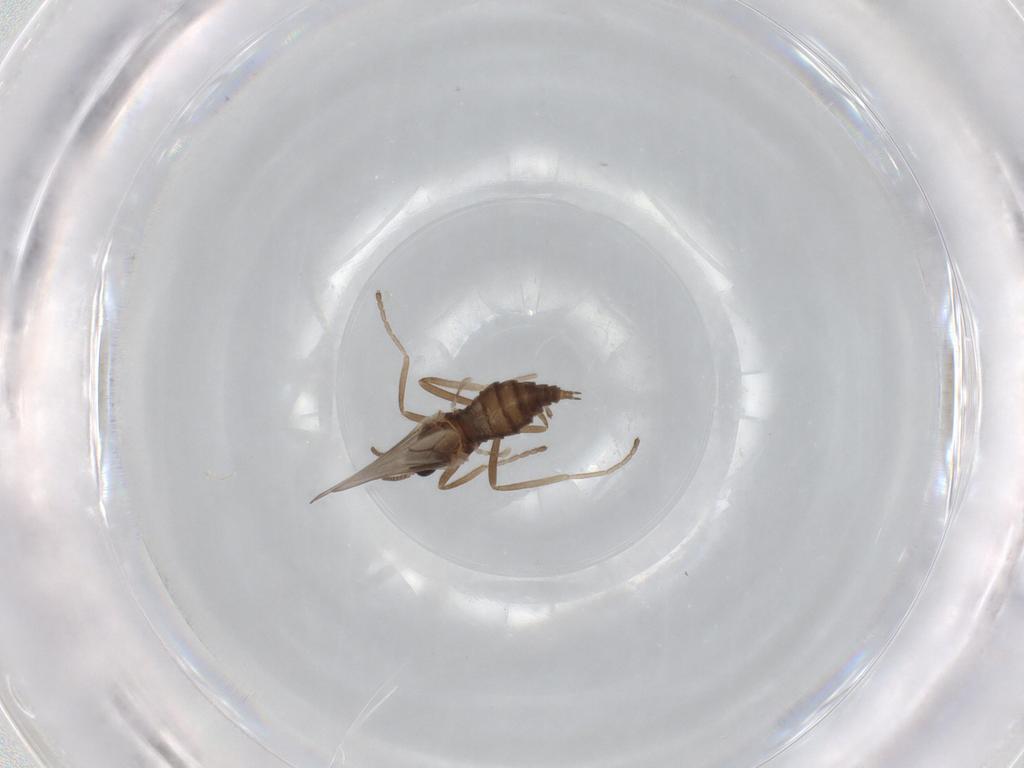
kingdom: Animalia
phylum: Arthropoda
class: Insecta
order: Diptera
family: Cecidomyiidae
